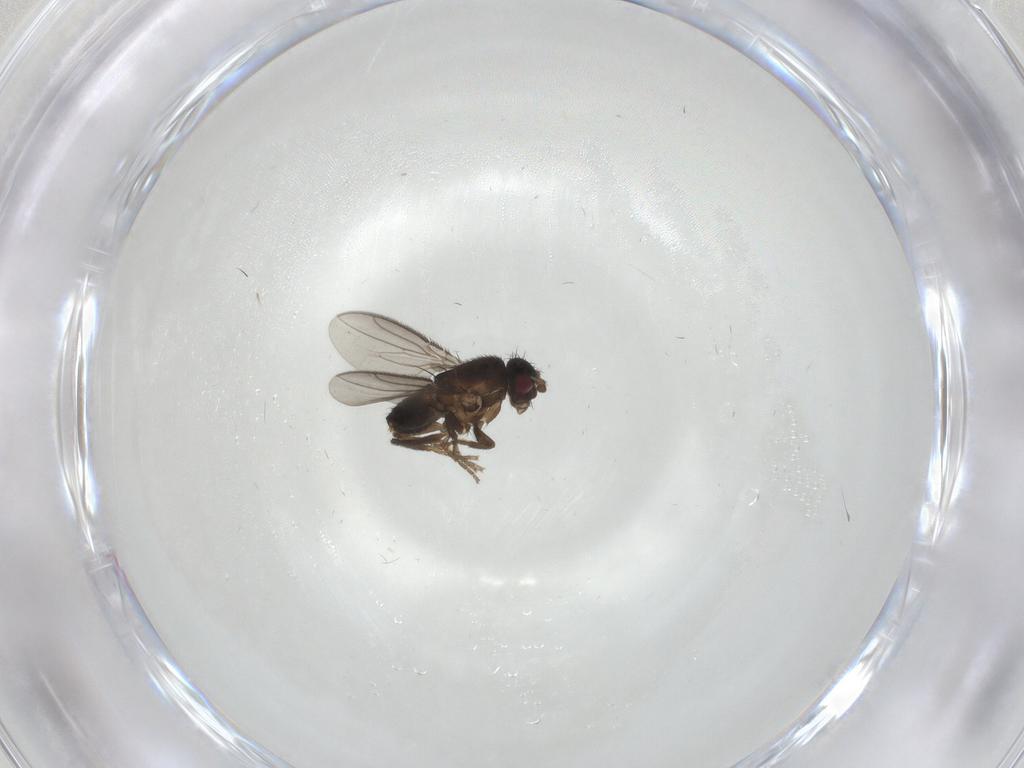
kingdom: Animalia
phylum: Arthropoda
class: Insecta
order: Diptera
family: Sphaeroceridae
